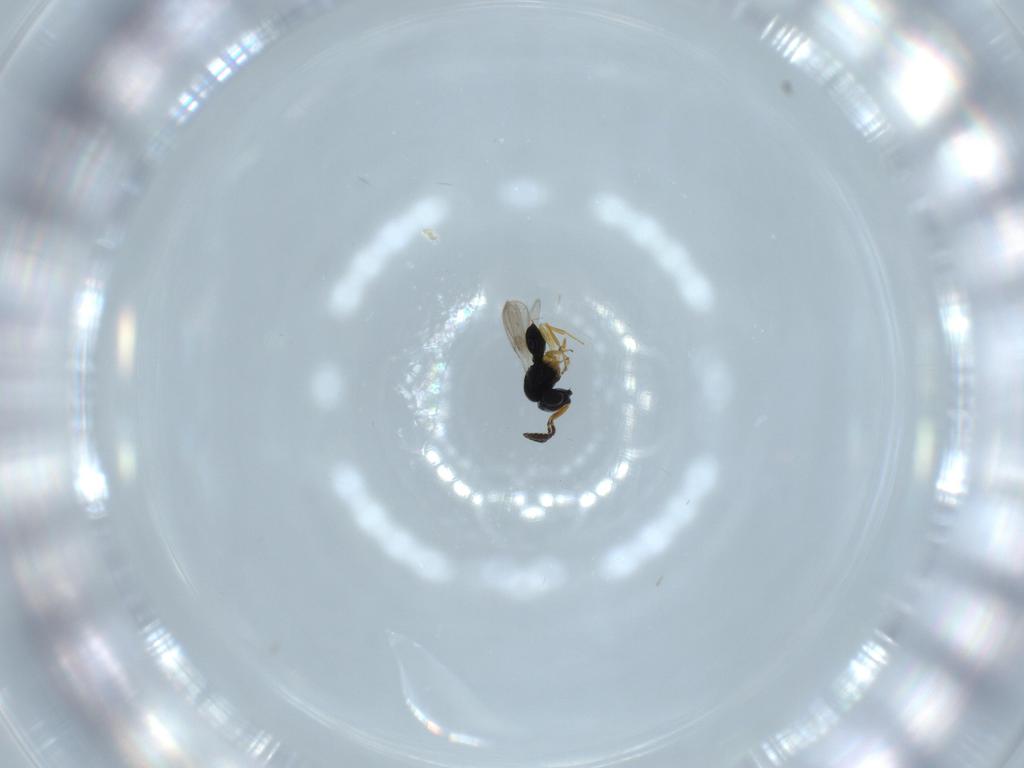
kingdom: Animalia
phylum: Arthropoda
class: Insecta
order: Hymenoptera
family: Scelionidae
